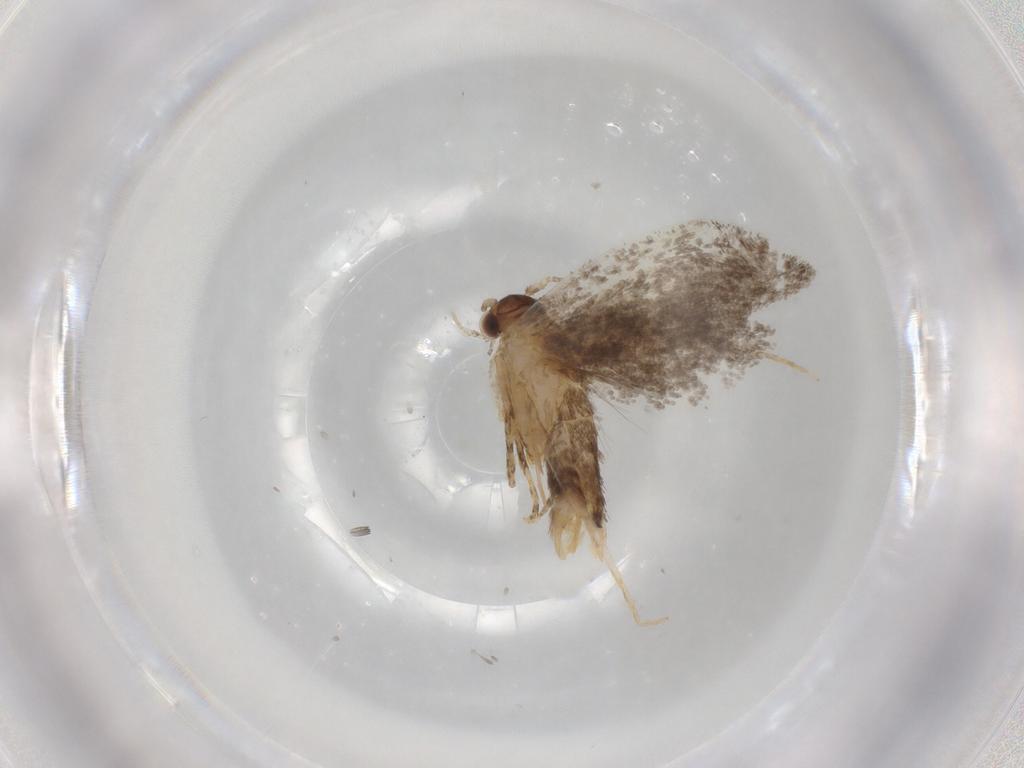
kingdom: Animalia
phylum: Arthropoda
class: Insecta
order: Lepidoptera
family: Dryadaulidae
